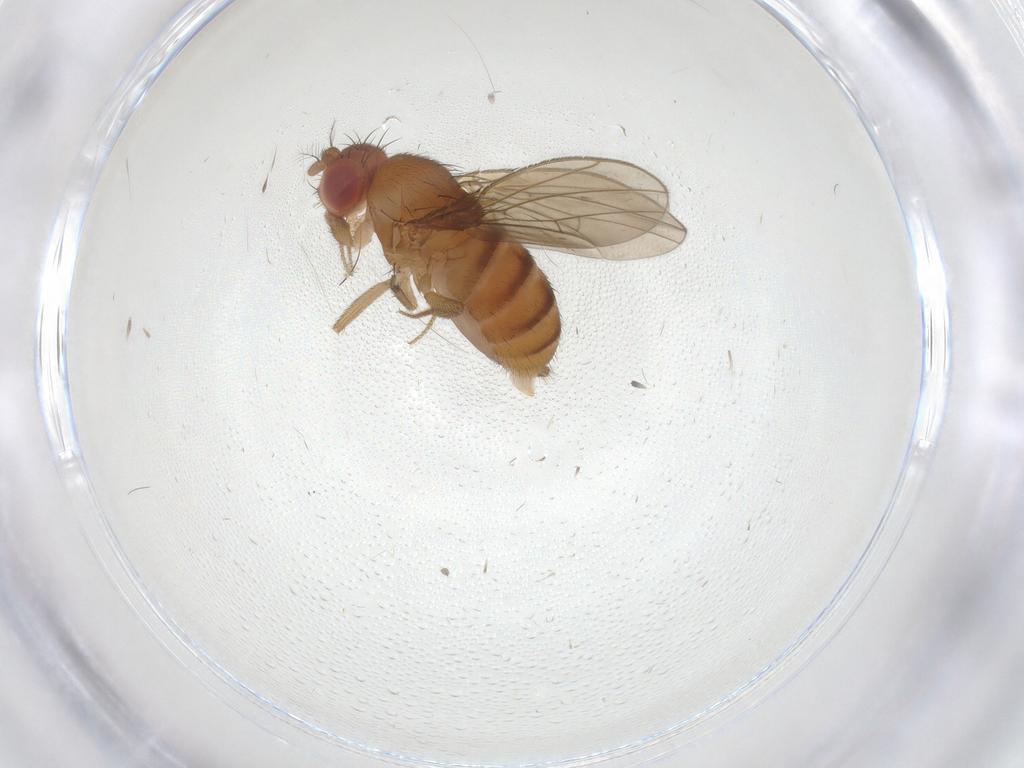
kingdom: Animalia
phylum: Arthropoda
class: Insecta
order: Diptera
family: Drosophilidae
